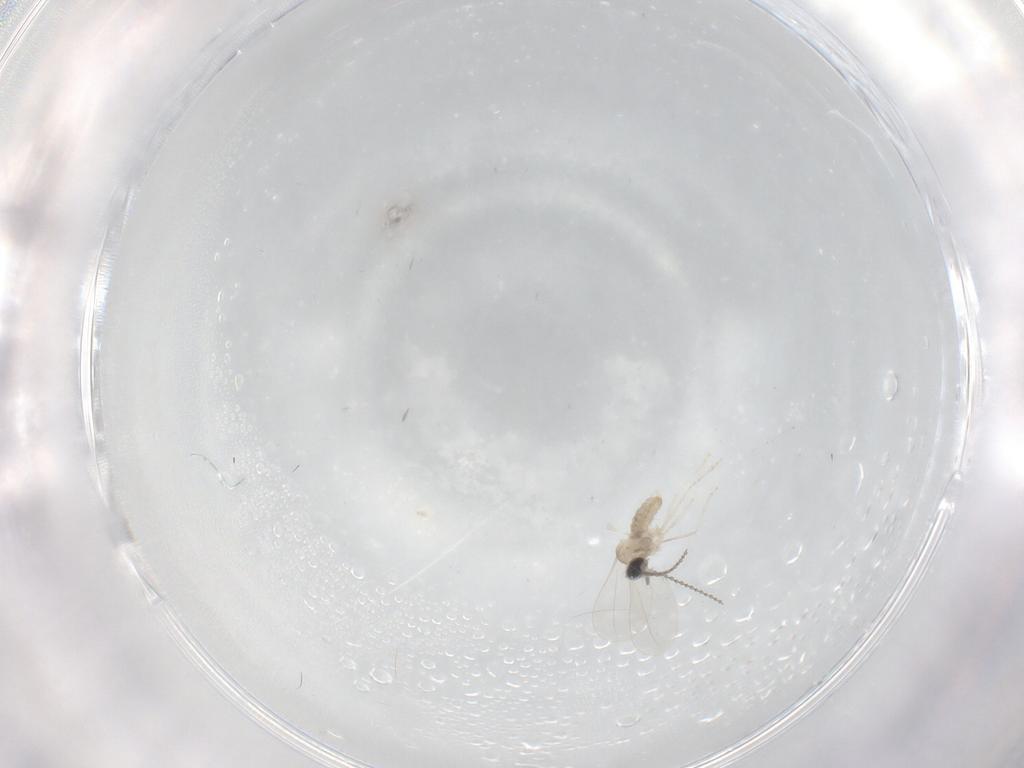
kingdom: Animalia
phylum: Arthropoda
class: Insecta
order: Diptera
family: Cecidomyiidae
